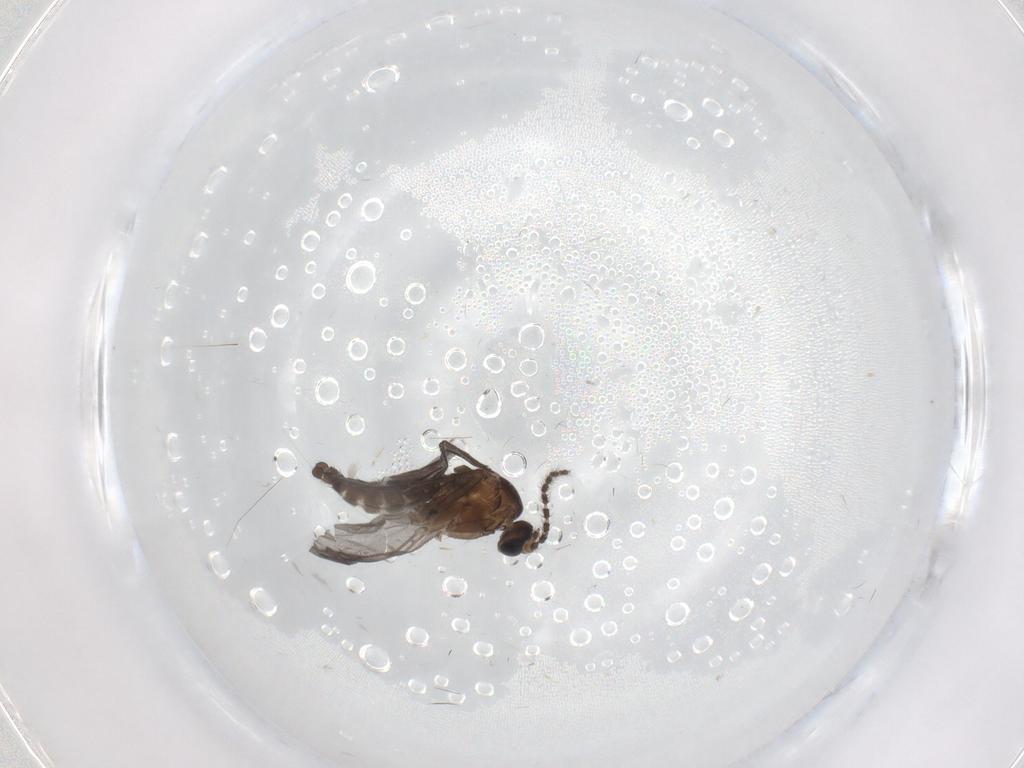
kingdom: Animalia
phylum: Arthropoda
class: Insecta
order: Diptera
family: Sciaridae
